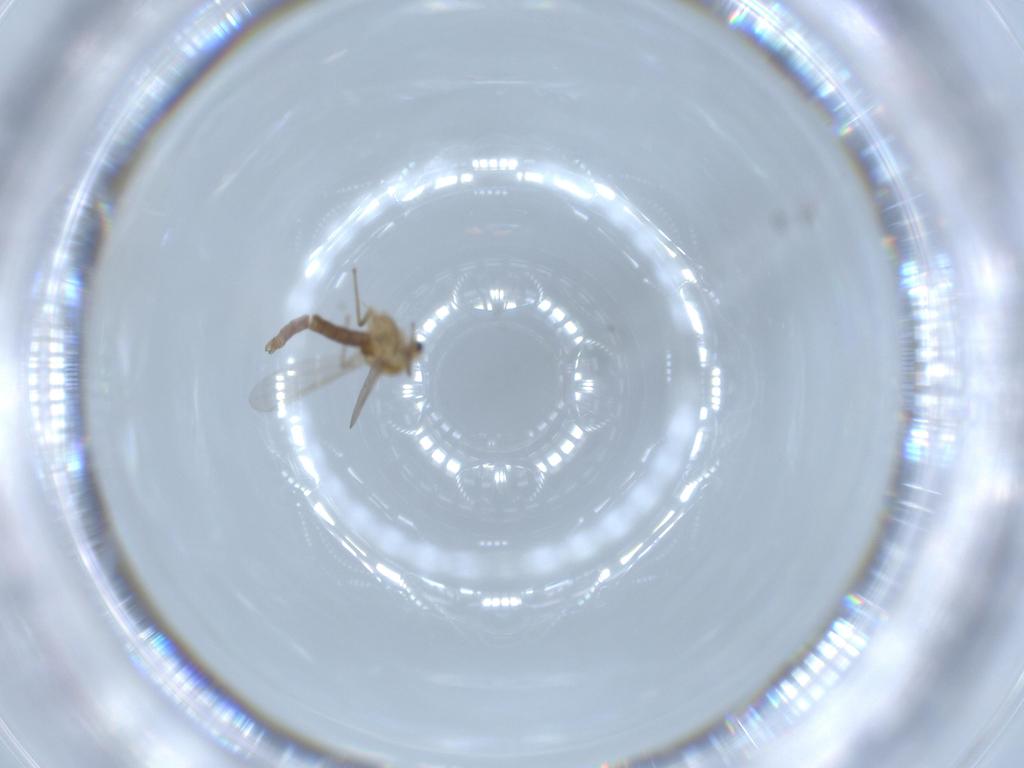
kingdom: Animalia
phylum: Arthropoda
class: Insecta
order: Diptera
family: Chironomidae
